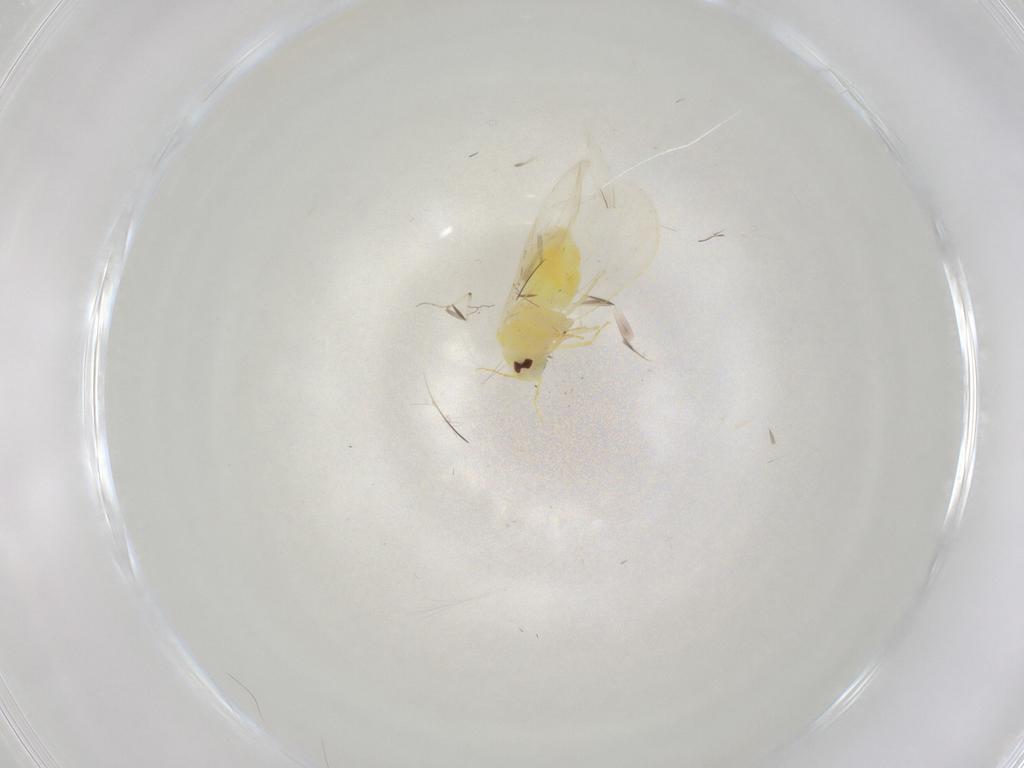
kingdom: Animalia
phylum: Arthropoda
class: Insecta
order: Hemiptera
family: Aleyrodidae
